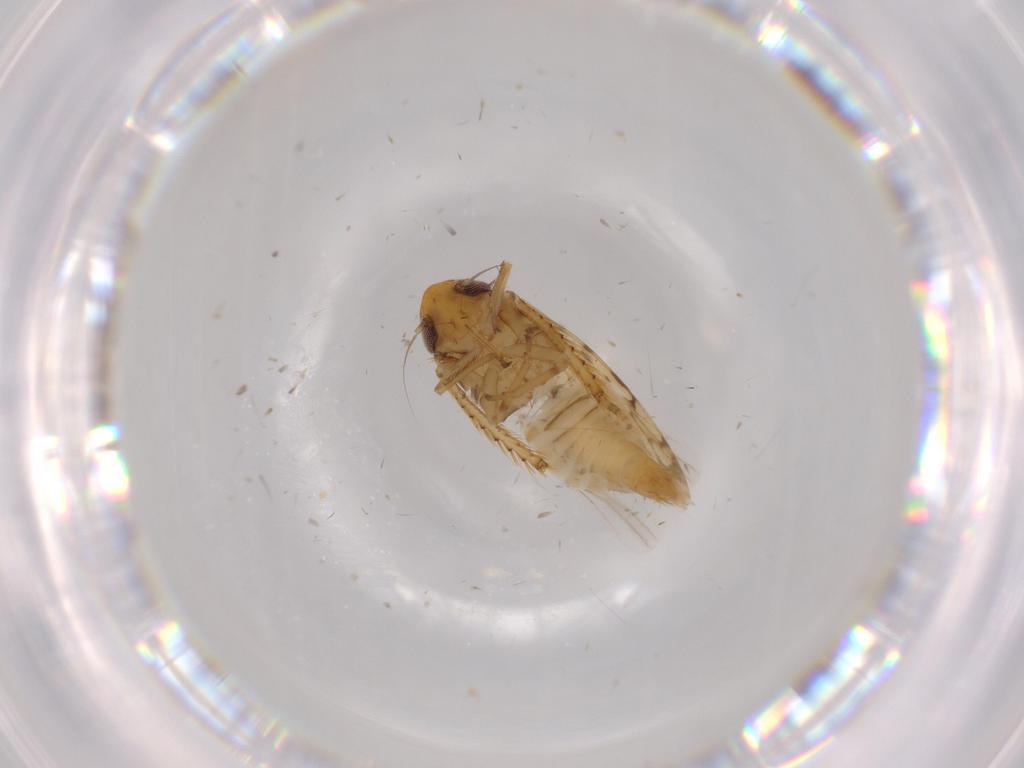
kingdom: Animalia
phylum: Arthropoda
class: Insecta
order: Hemiptera
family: Cicadellidae
